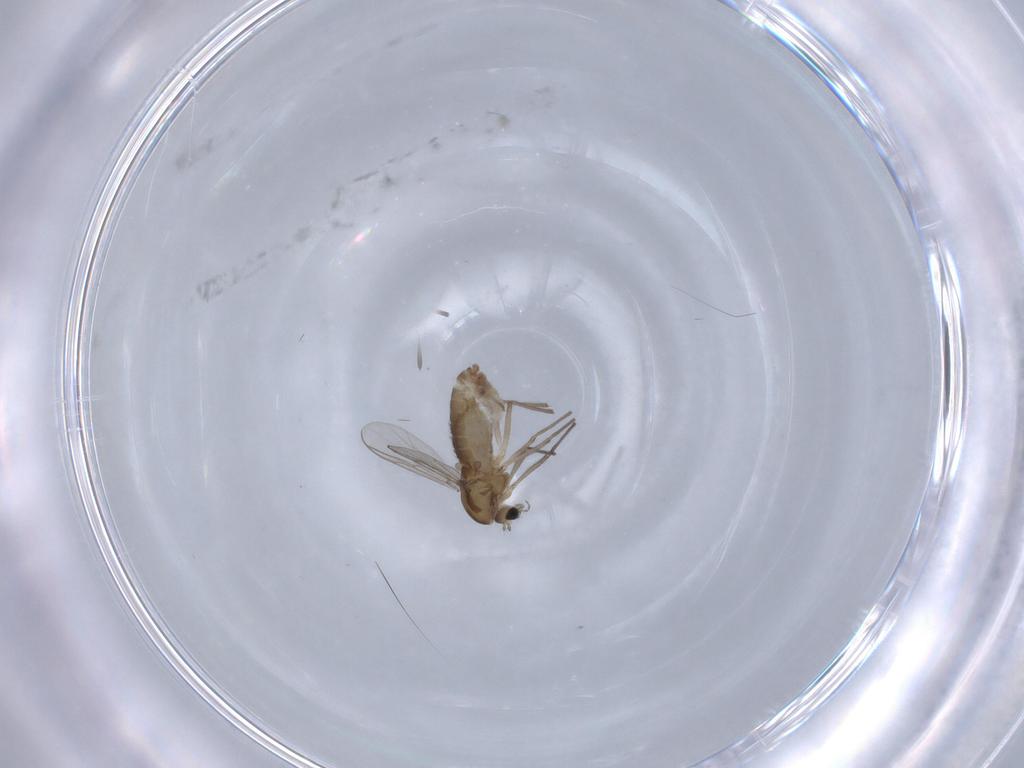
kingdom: Animalia
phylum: Arthropoda
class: Insecta
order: Diptera
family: Chironomidae
